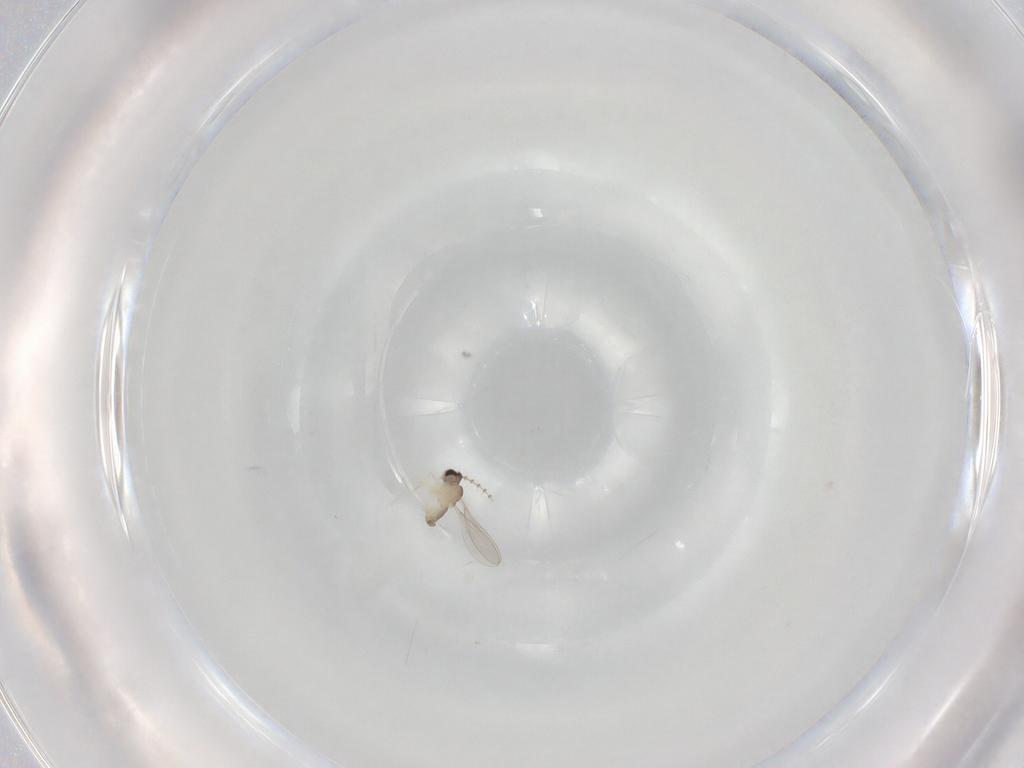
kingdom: Animalia
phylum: Arthropoda
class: Insecta
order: Diptera
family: Cecidomyiidae
